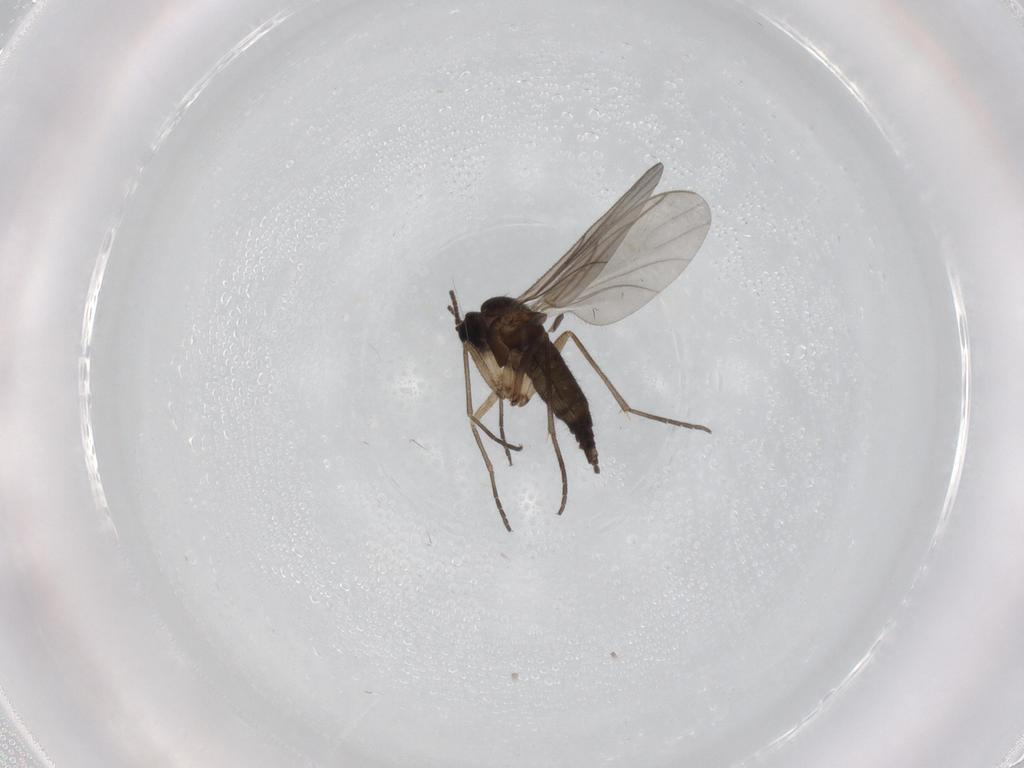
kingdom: Animalia
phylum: Arthropoda
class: Insecta
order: Diptera
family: Sciaridae
